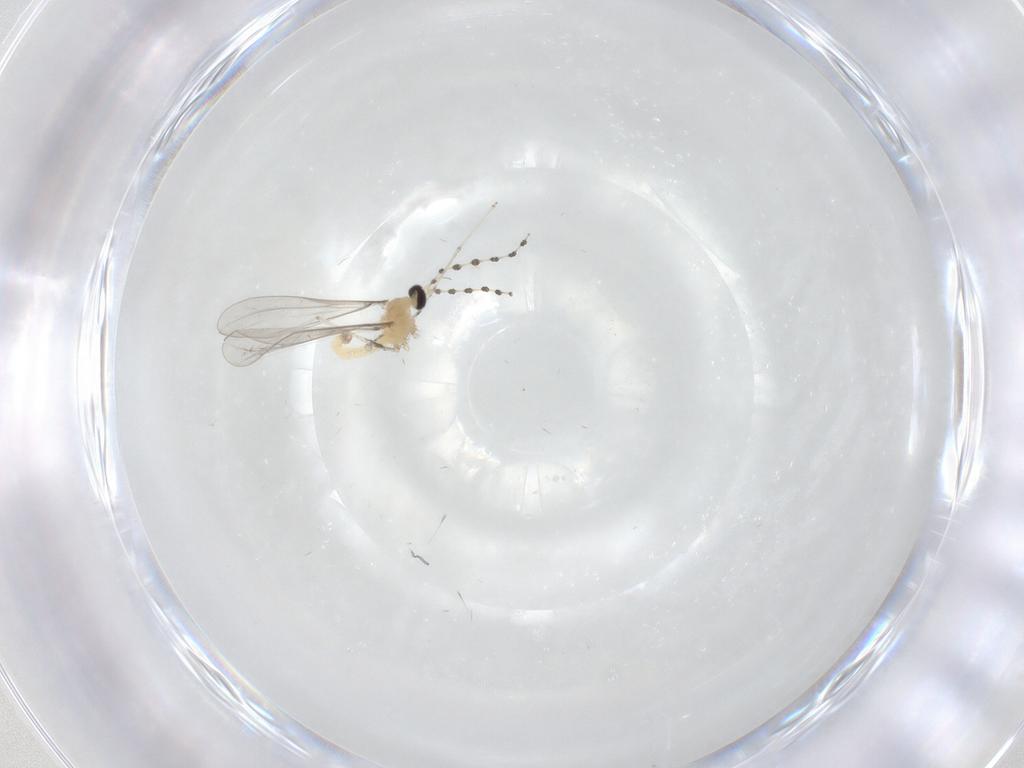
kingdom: Animalia
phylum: Arthropoda
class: Insecta
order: Diptera
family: Cecidomyiidae
